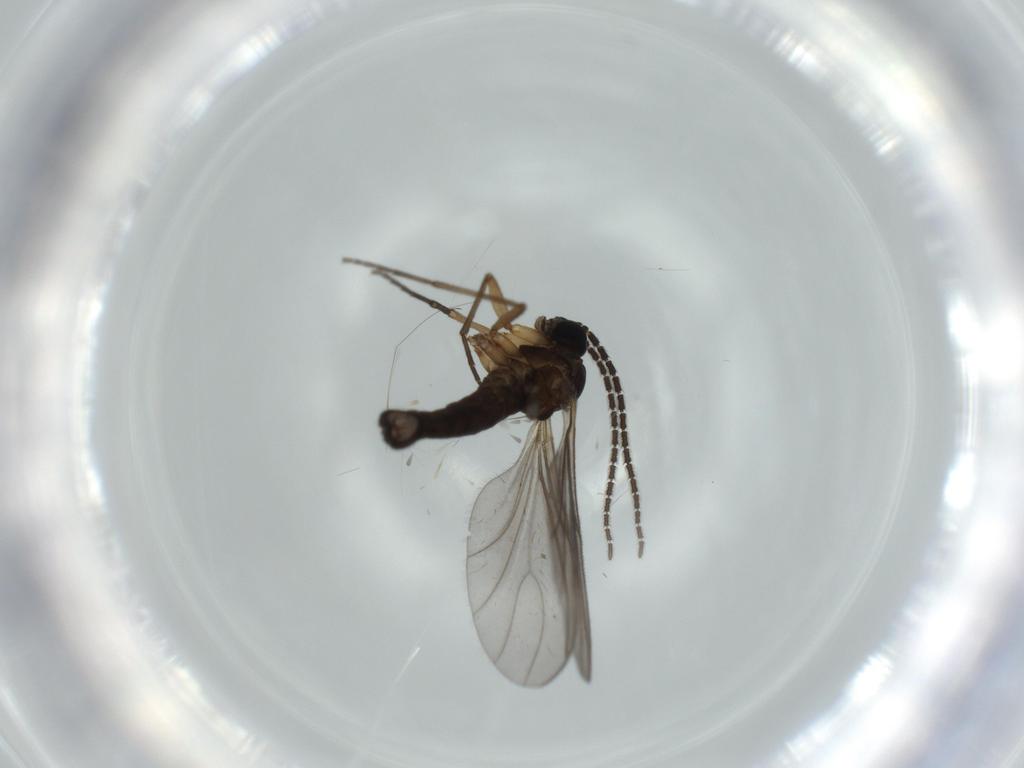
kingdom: Animalia
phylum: Arthropoda
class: Insecta
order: Diptera
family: Sciaridae
